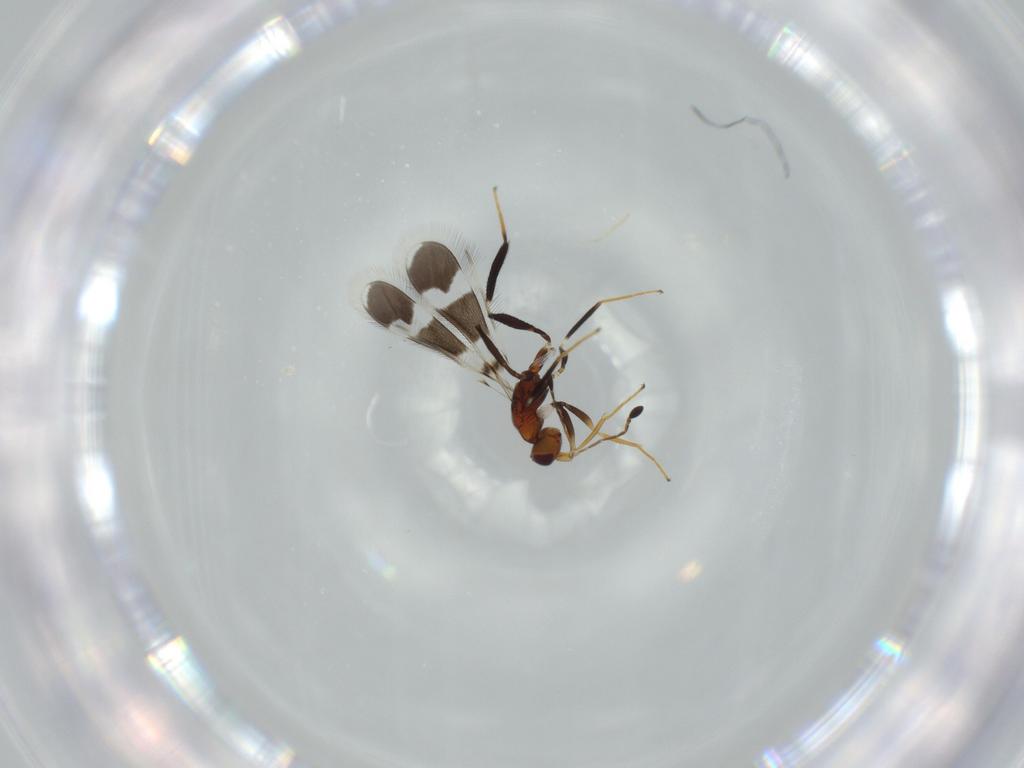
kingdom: Animalia
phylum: Arthropoda
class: Insecta
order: Hymenoptera
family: Mymaridae
